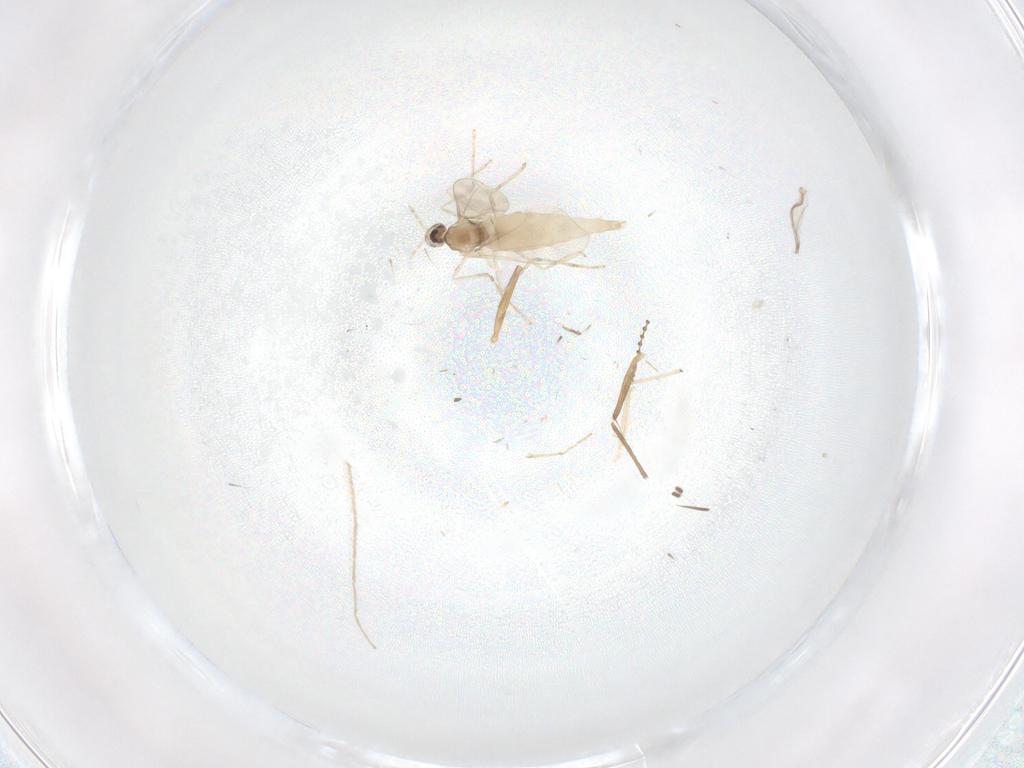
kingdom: Animalia
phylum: Arthropoda
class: Insecta
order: Diptera
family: Cecidomyiidae
